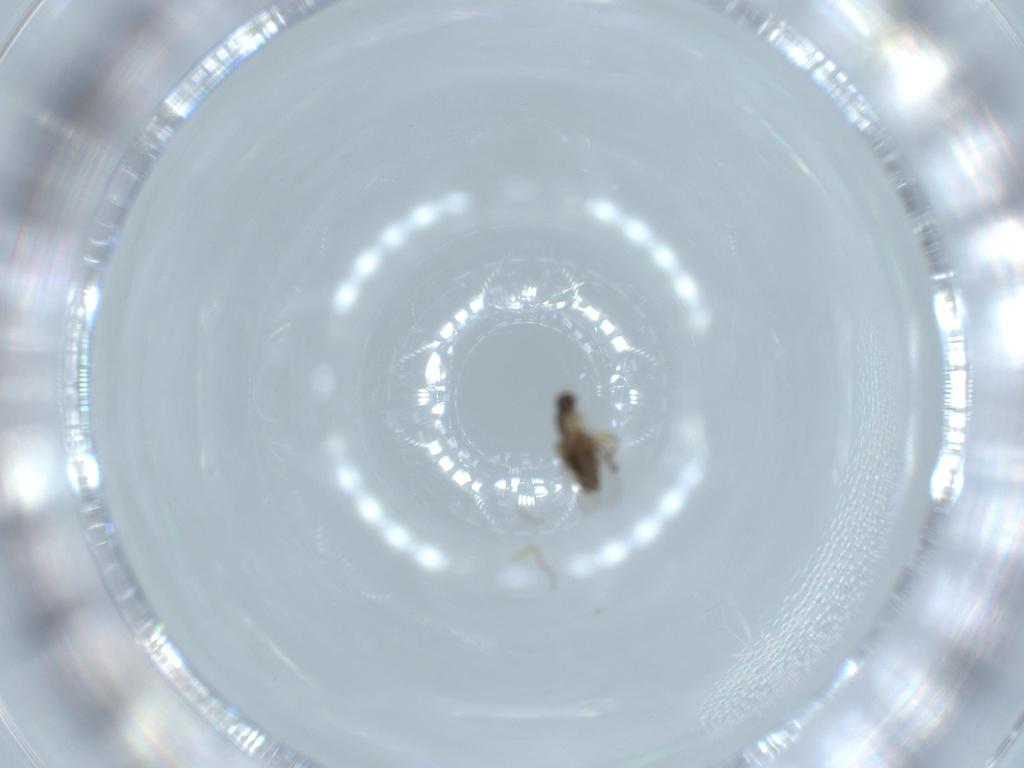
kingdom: Animalia
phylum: Arthropoda
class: Insecta
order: Diptera
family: Phoridae
